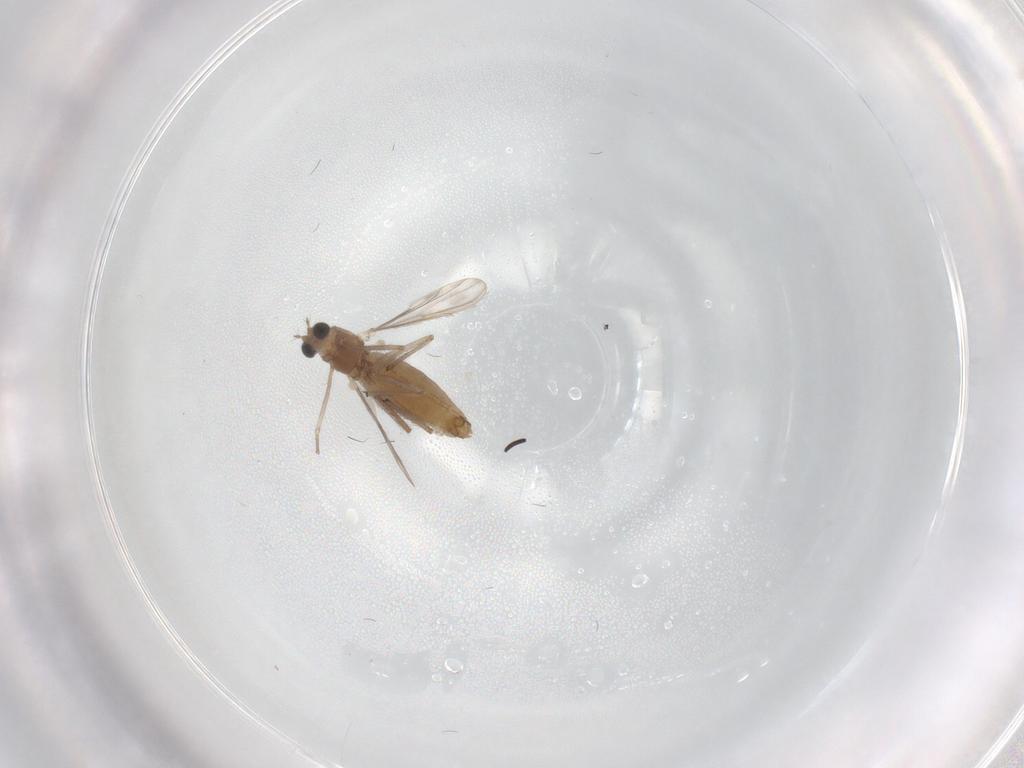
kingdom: Animalia
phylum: Arthropoda
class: Insecta
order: Diptera
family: Chironomidae
